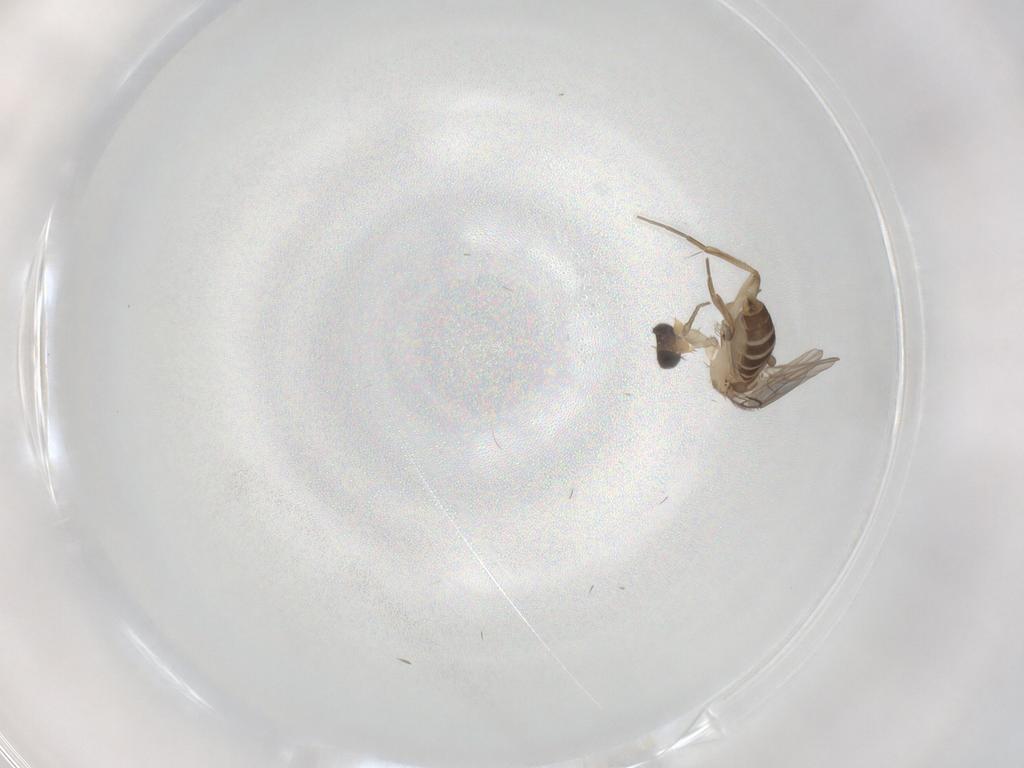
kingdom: Animalia
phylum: Arthropoda
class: Insecta
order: Diptera
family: Phoridae
